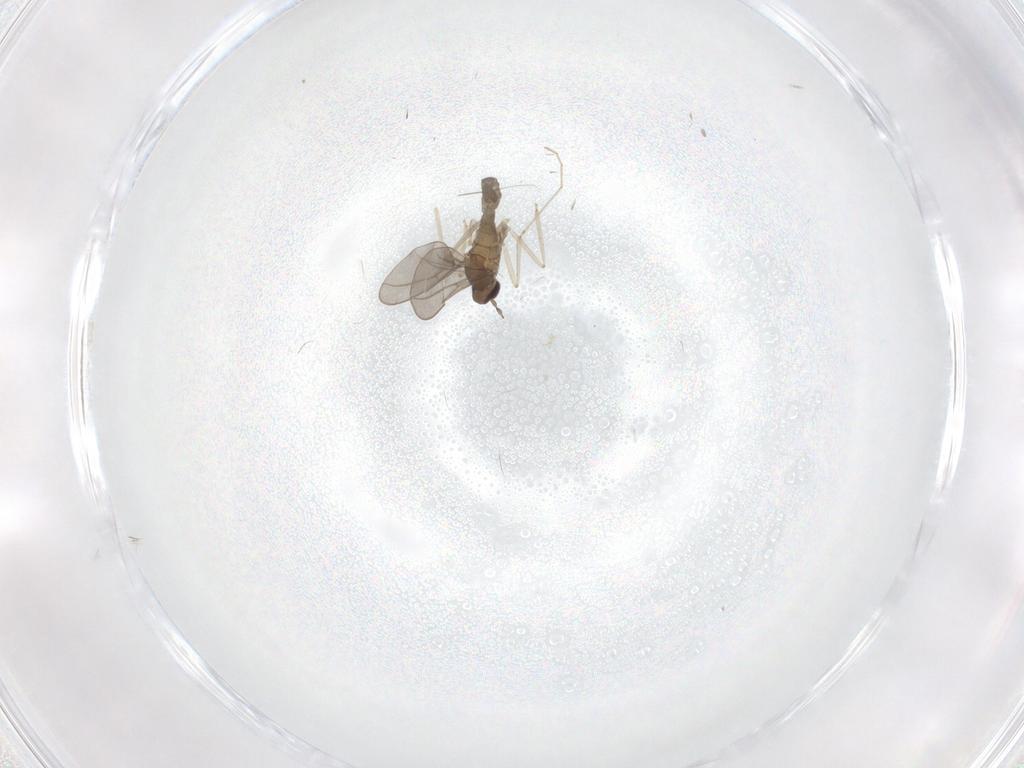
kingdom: Animalia
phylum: Arthropoda
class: Insecta
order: Diptera
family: Cecidomyiidae
